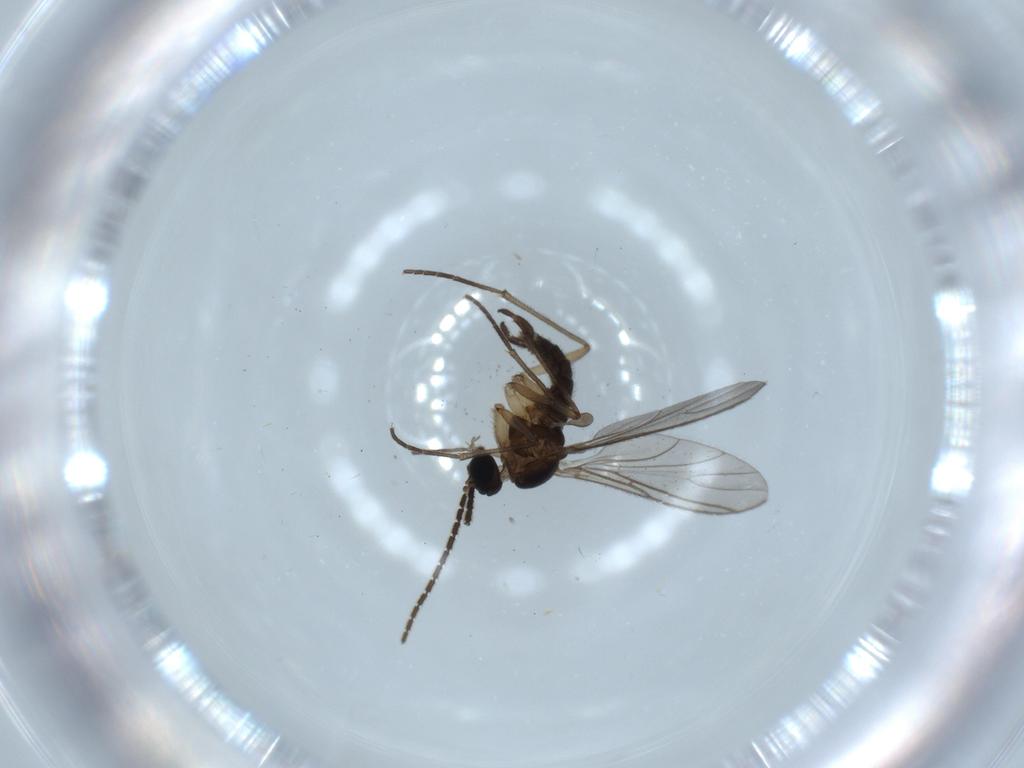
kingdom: Animalia
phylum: Arthropoda
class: Insecta
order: Diptera
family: Sciaridae
